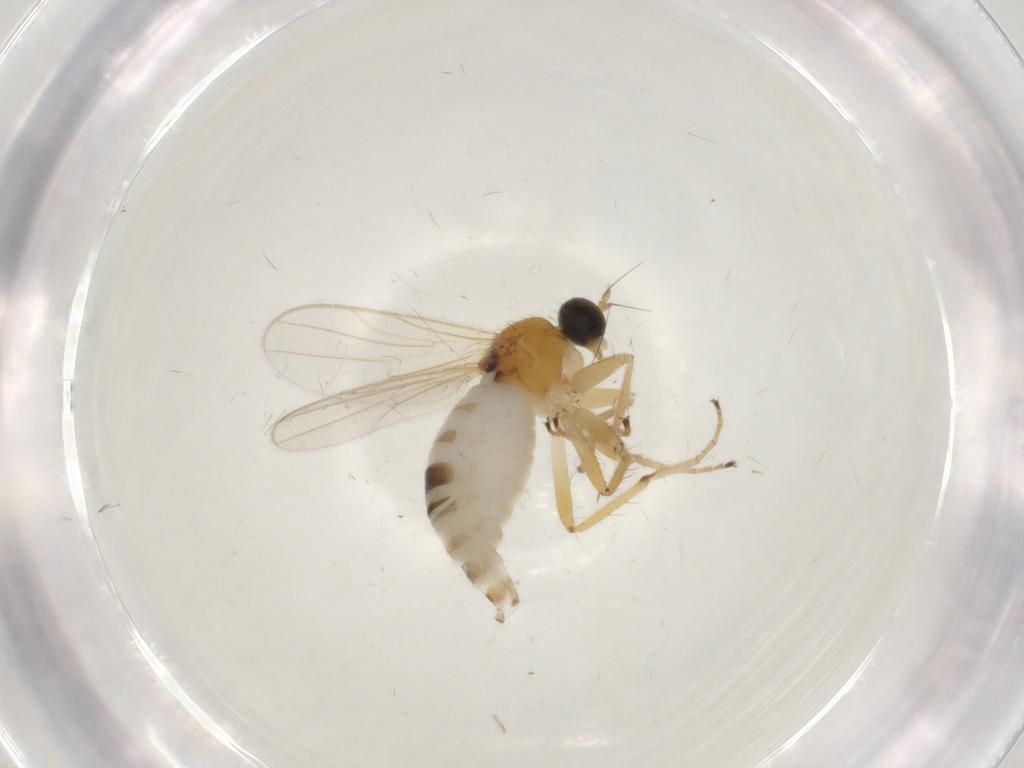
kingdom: Animalia
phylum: Arthropoda
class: Insecta
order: Diptera
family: Hybotidae
